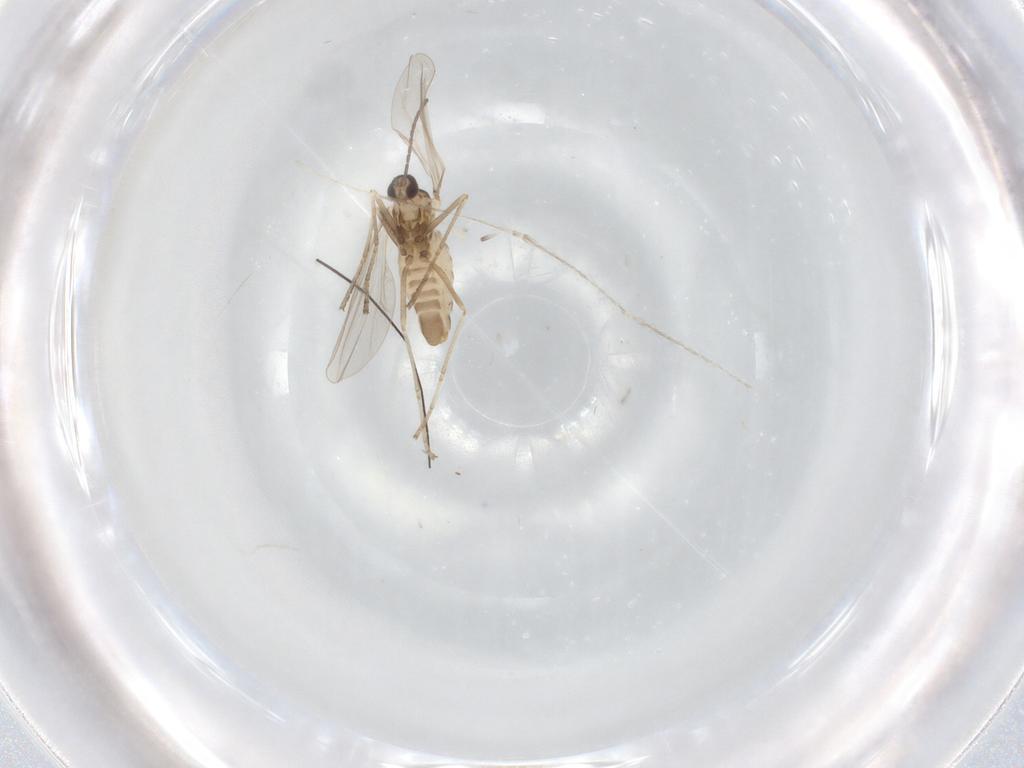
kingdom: Animalia
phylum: Arthropoda
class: Insecta
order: Diptera
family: Cecidomyiidae
